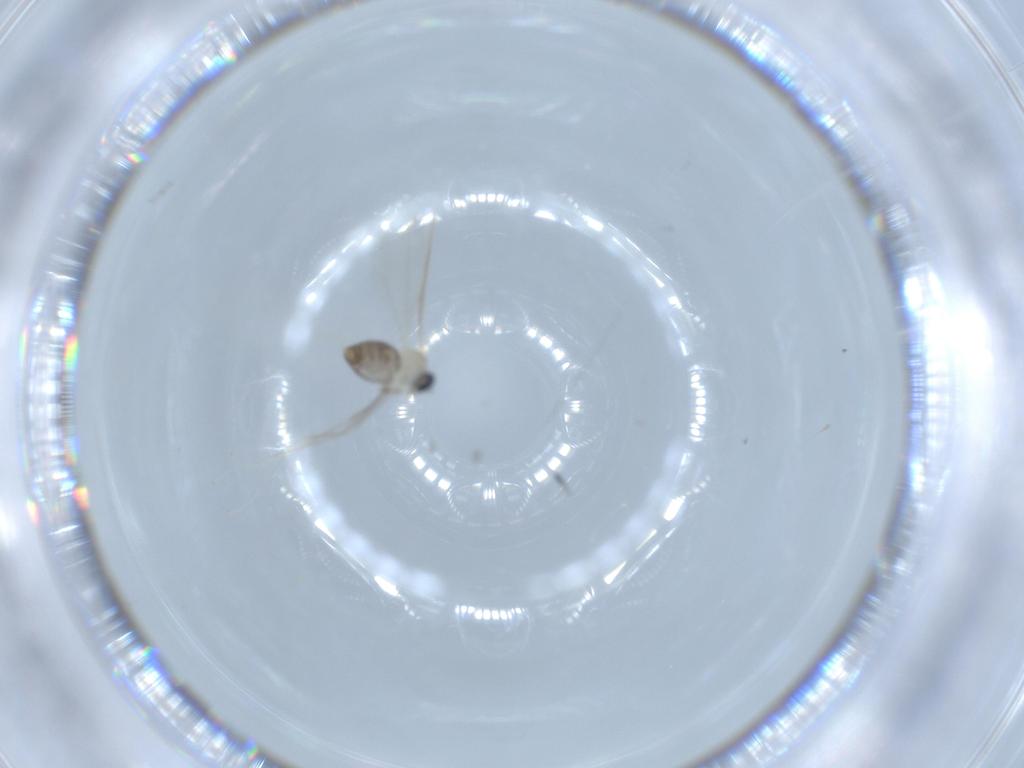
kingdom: Animalia
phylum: Arthropoda
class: Insecta
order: Diptera
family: Cecidomyiidae
